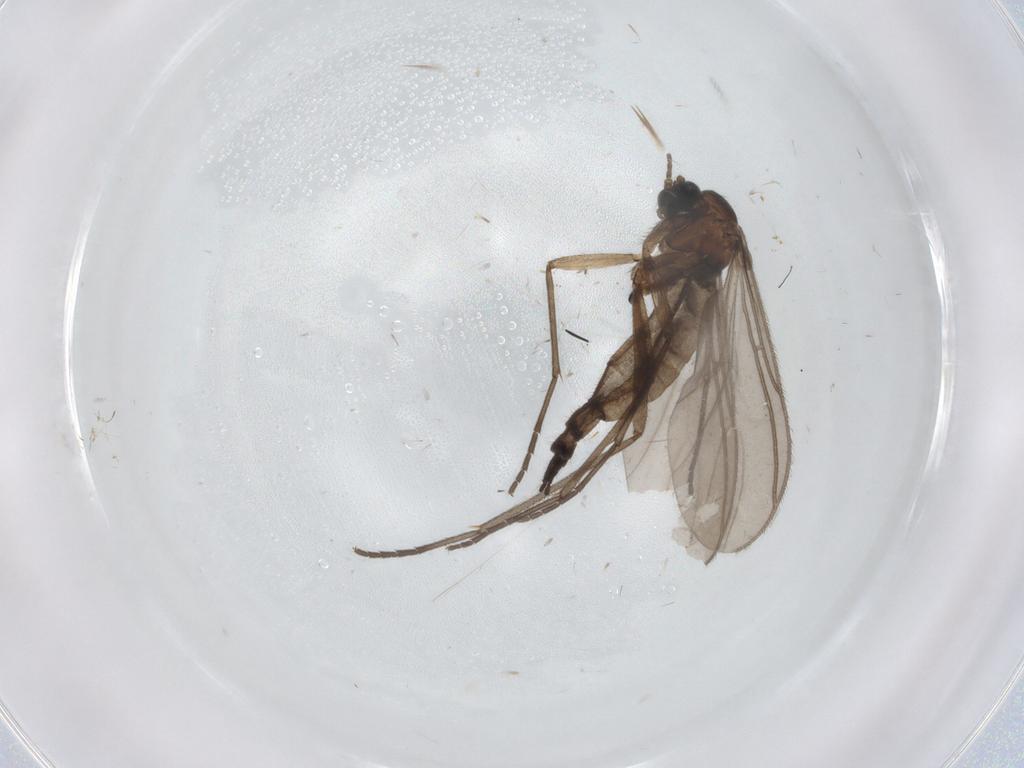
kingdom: Animalia
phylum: Arthropoda
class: Insecta
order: Diptera
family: Sciaridae
